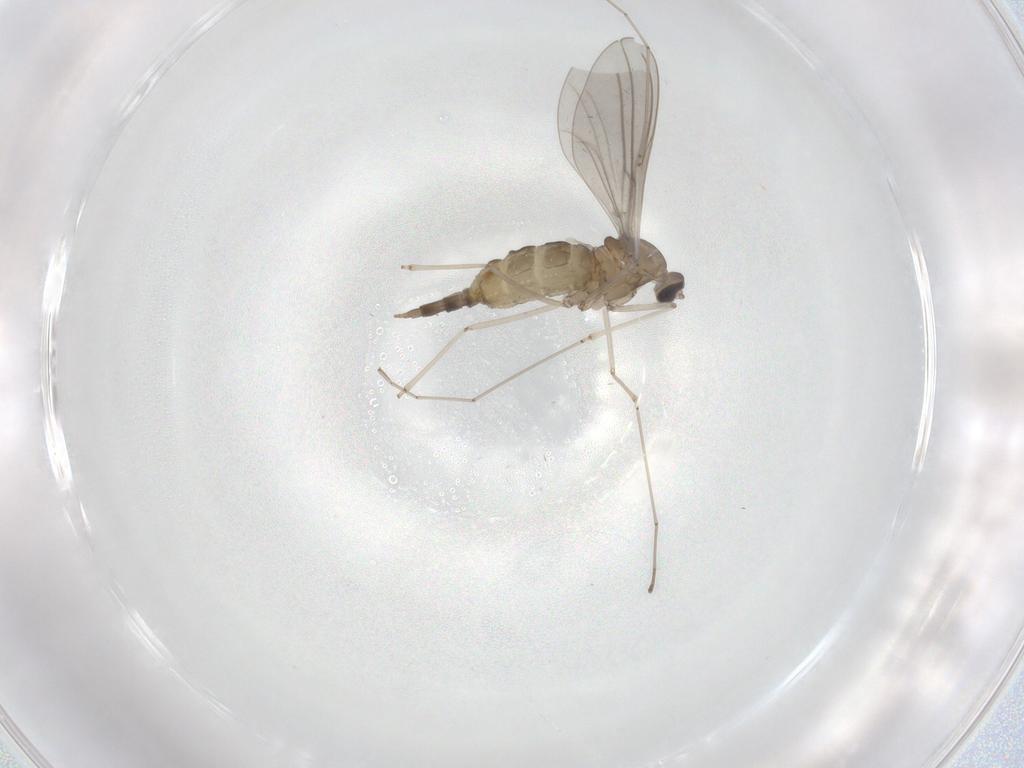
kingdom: Animalia
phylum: Arthropoda
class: Insecta
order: Diptera
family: Cecidomyiidae
